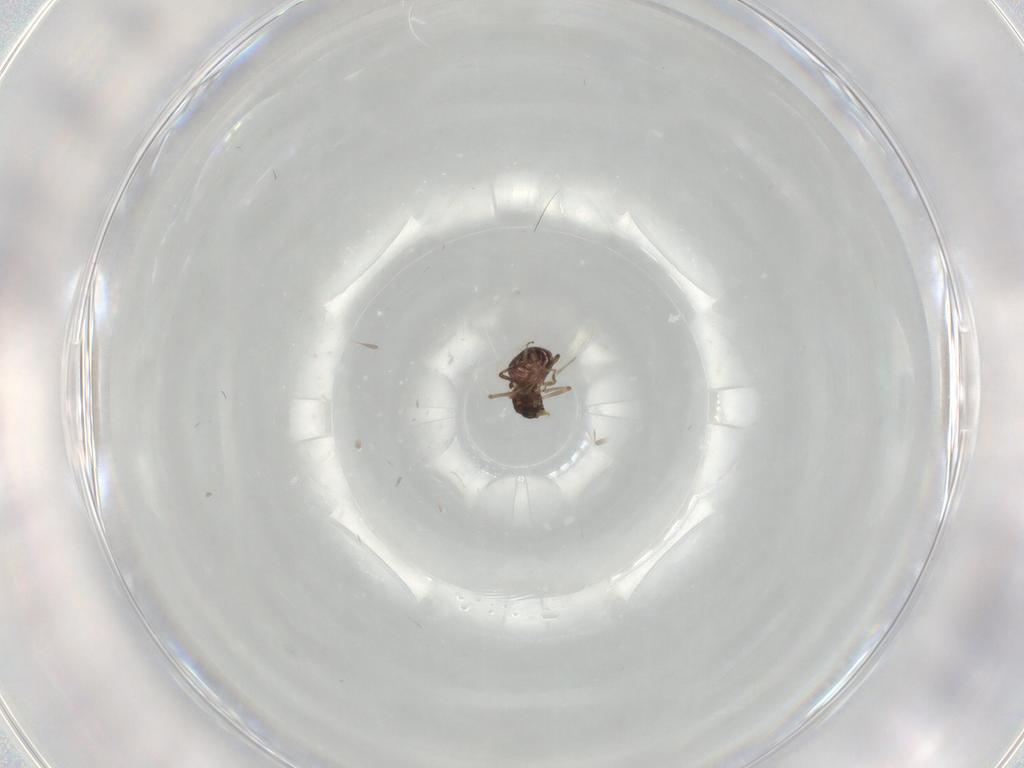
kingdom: Animalia
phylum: Arthropoda
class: Insecta
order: Diptera
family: Ceratopogonidae
